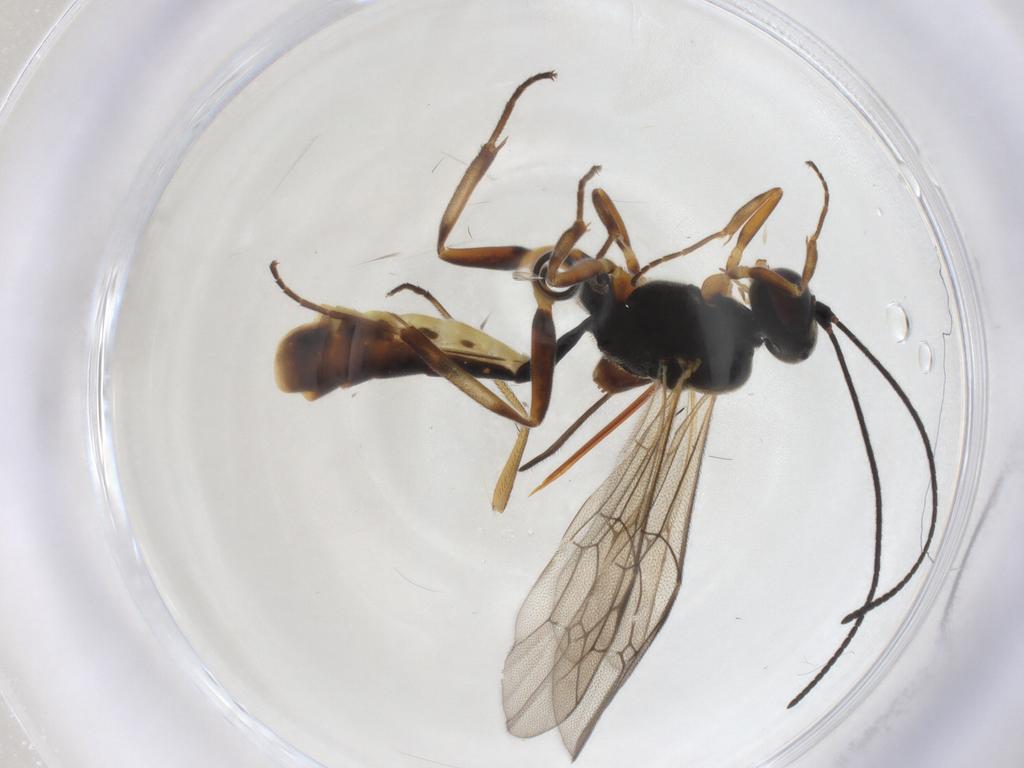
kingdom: Animalia
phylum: Arthropoda
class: Insecta
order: Hymenoptera
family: Ichneumonidae
